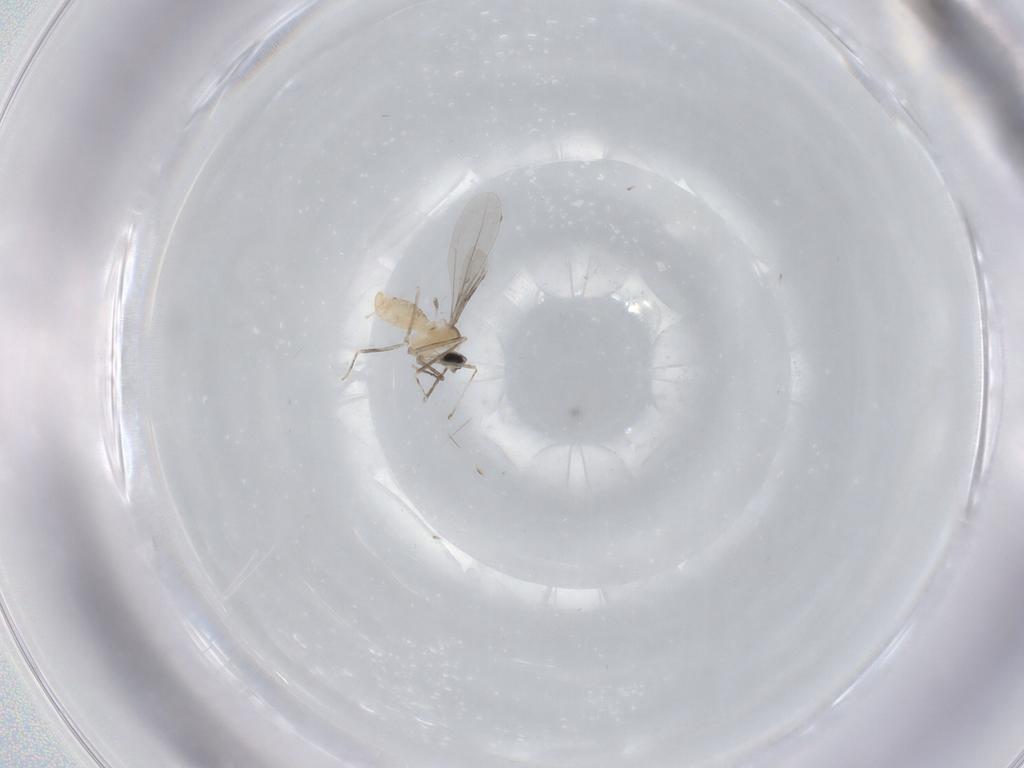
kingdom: Animalia
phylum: Arthropoda
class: Insecta
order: Diptera
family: Cecidomyiidae
